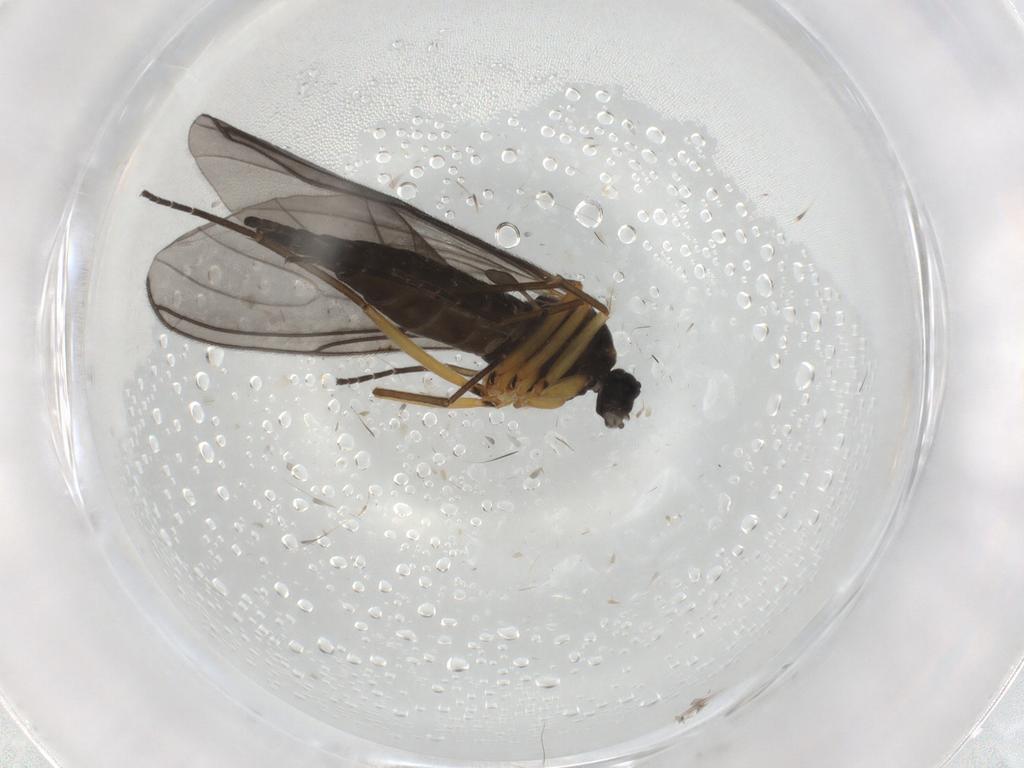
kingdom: Animalia
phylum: Arthropoda
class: Insecta
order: Diptera
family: Sciaridae
